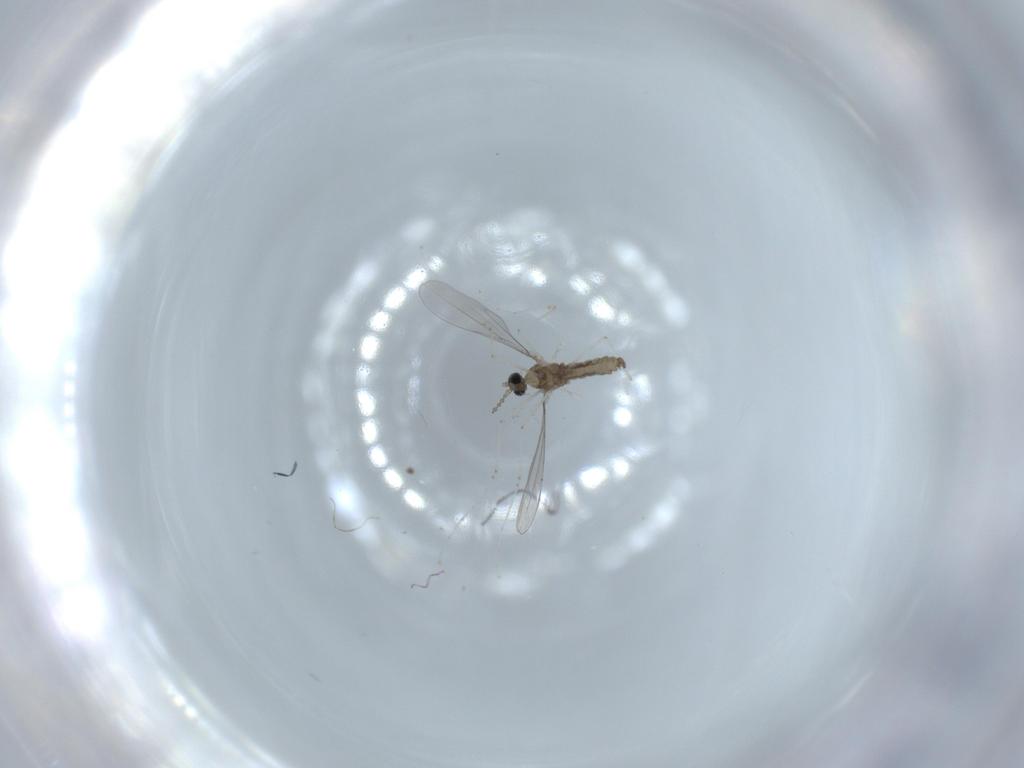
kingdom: Animalia
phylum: Arthropoda
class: Insecta
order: Diptera
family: Cecidomyiidae
